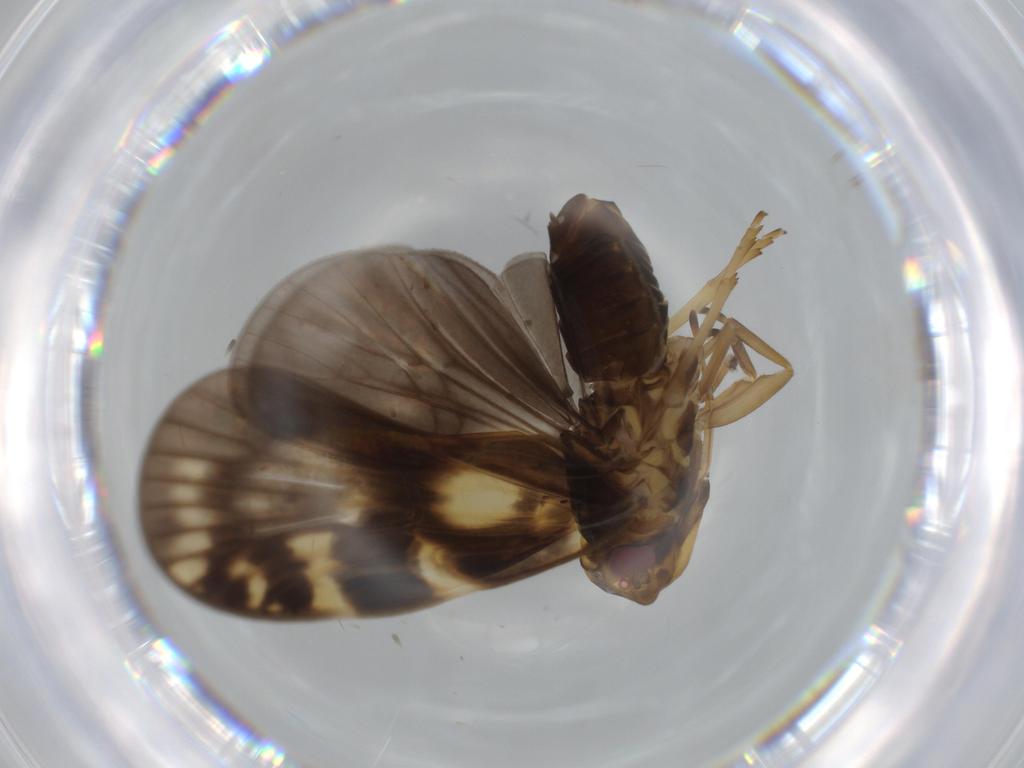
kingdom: Animalia
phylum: Arthropoda
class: Insecta
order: Hemiptera
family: Cixiidae
